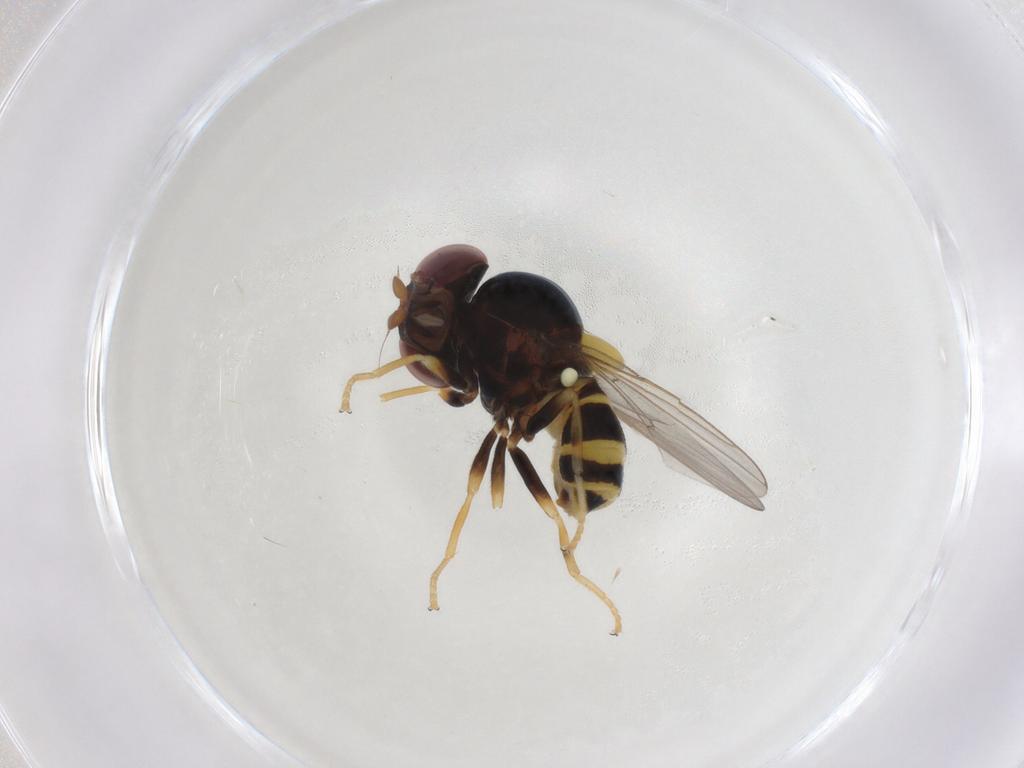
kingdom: Animalia
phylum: Arthropoda
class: Insecta
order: Diptera
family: Chloropidae
